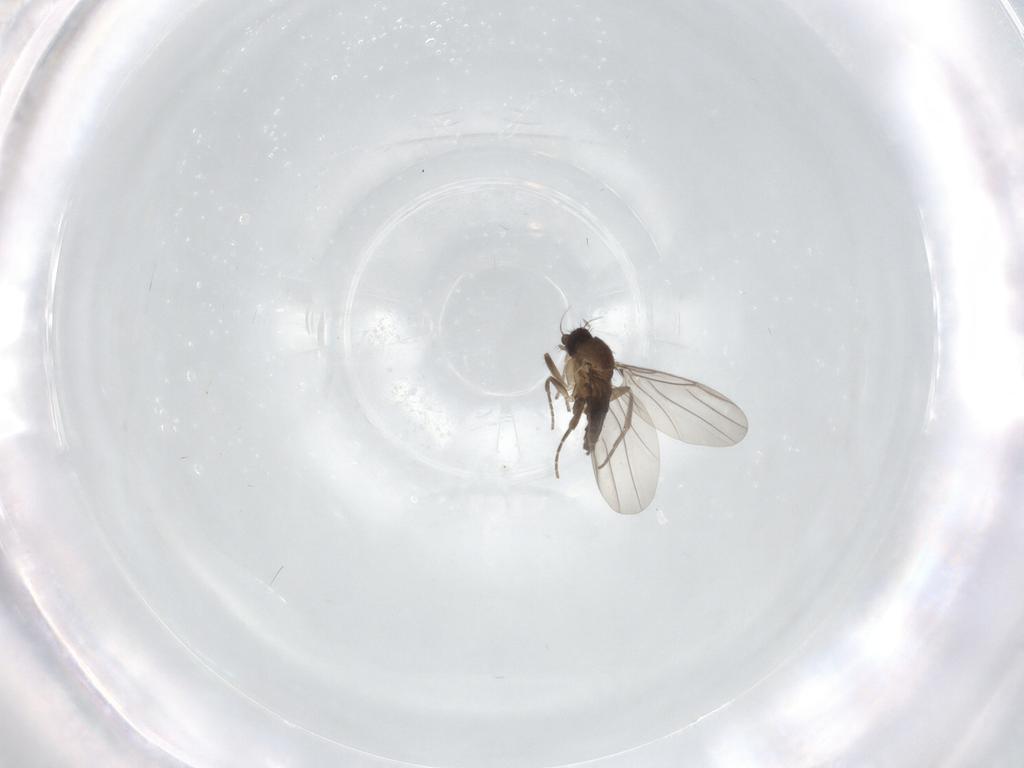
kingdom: Animalia
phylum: Arthropoda
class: Insecta
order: Diptera
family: Cecidomyiidae
